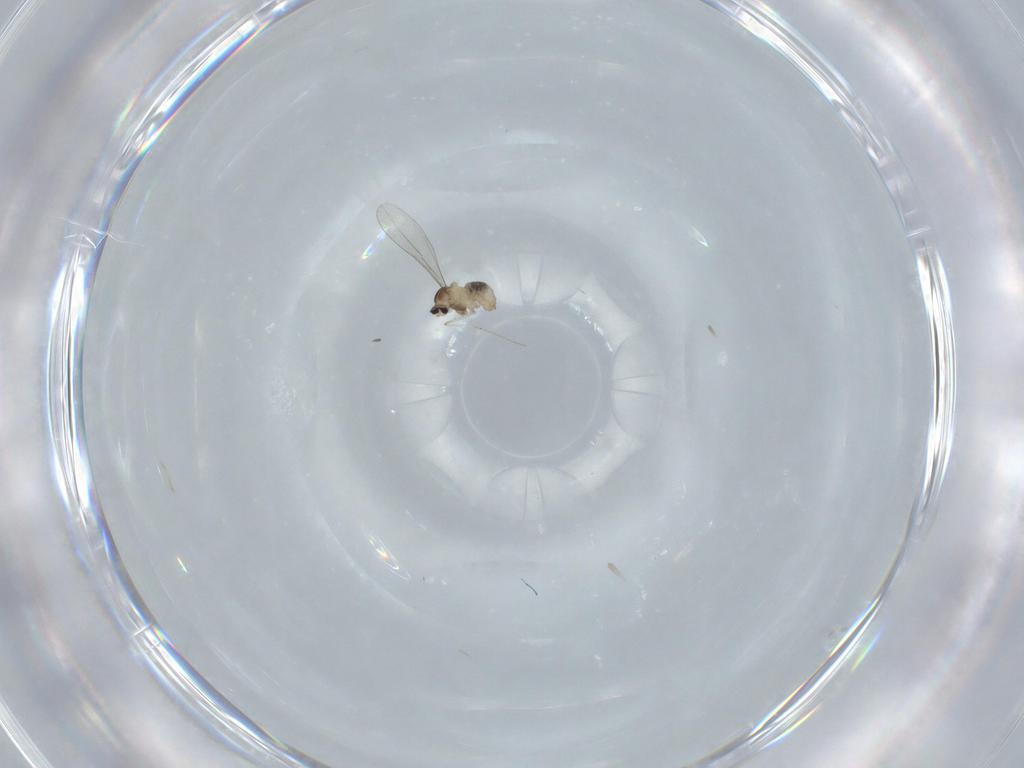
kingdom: Animalia
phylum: Arthropoda
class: Insecta
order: Diptera
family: Cecidomyiidae
